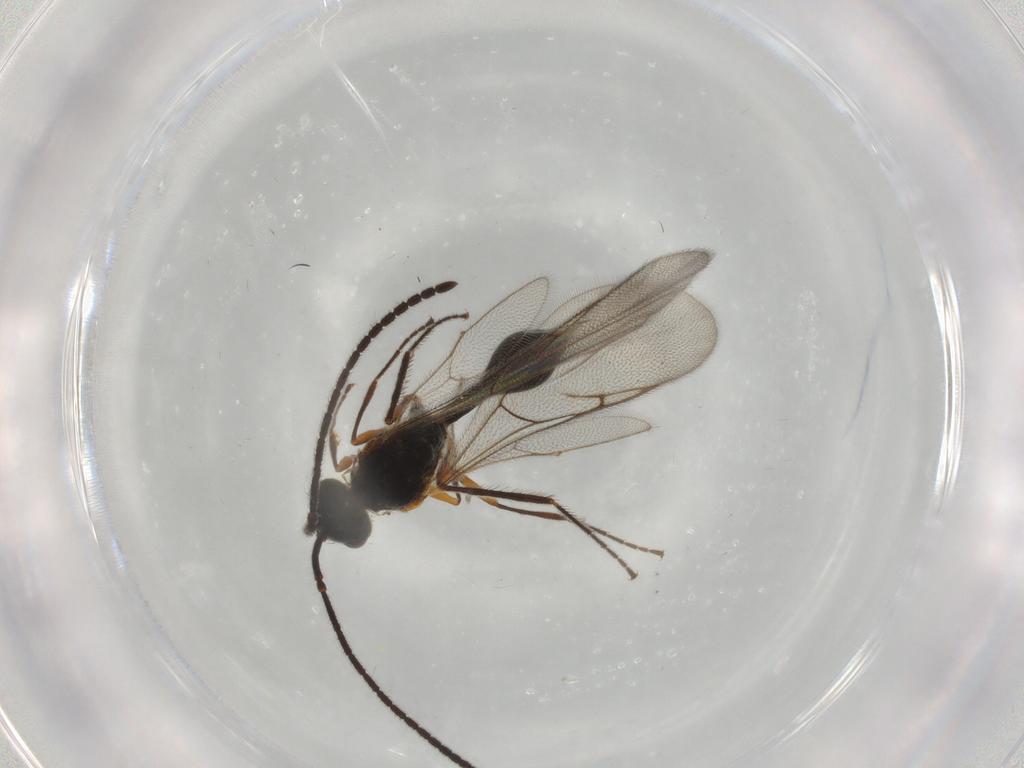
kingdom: Animalia
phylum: Arthropoda
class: Insecta
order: Hymenoptera
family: Diapriidae
